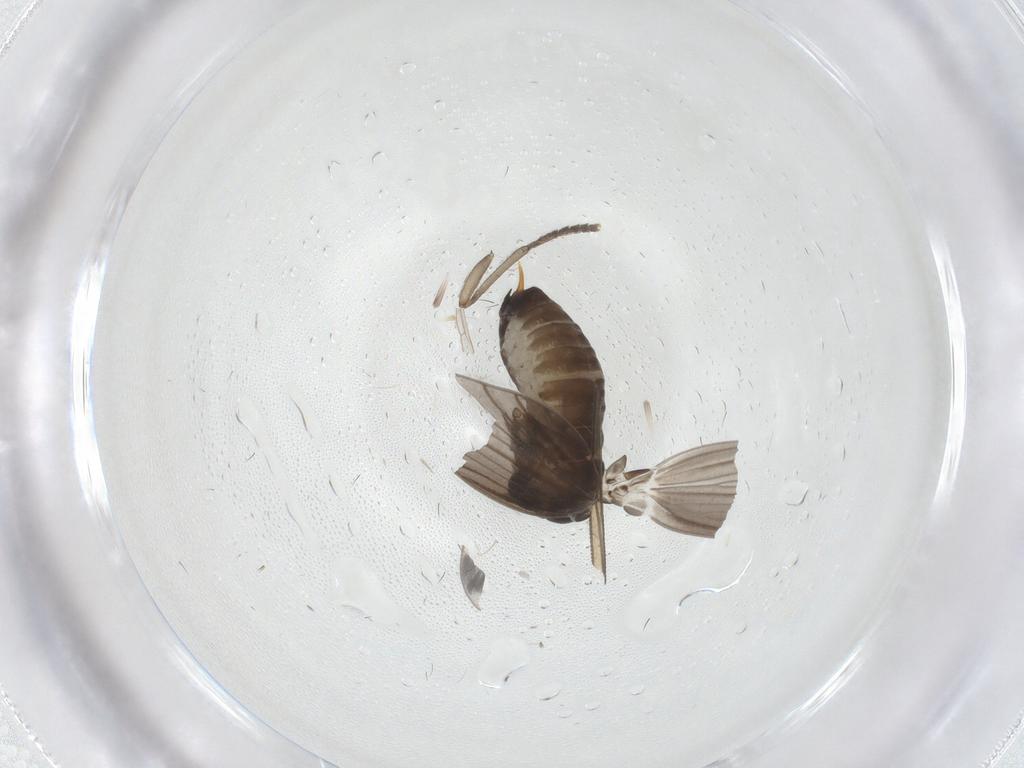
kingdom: Animalia
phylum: Arthropoda
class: Insecta
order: Diptera
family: Psychodidae
